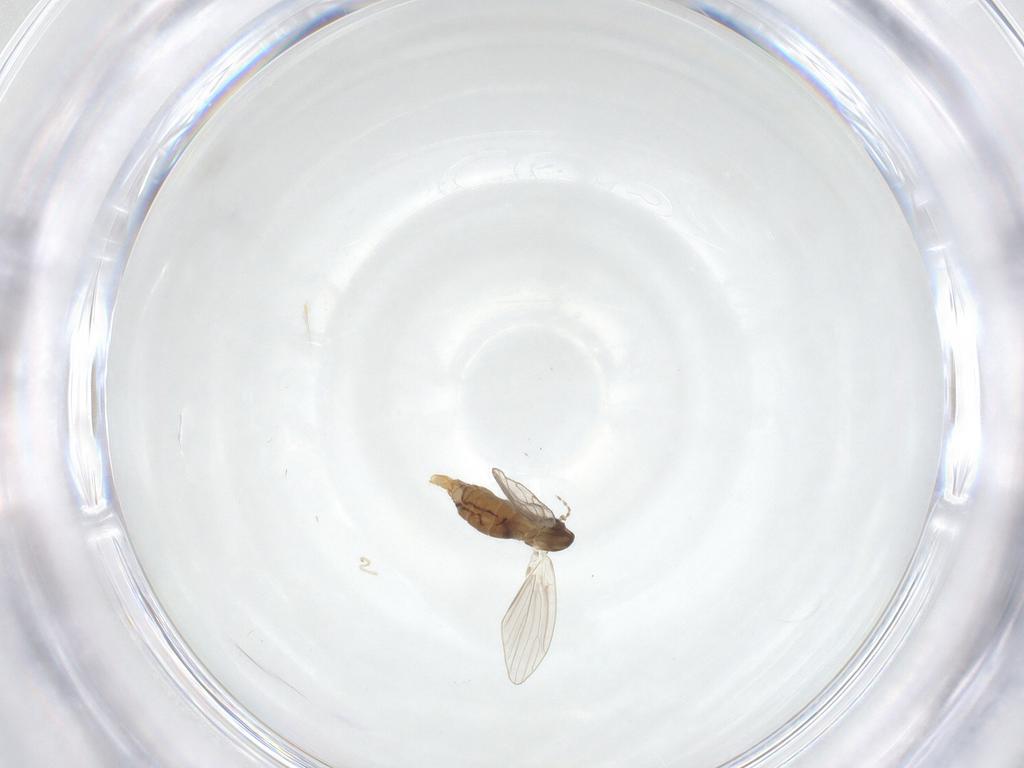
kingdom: Animalia
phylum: Arthropoda
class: Insecta
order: Diptera
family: Psychodidae
